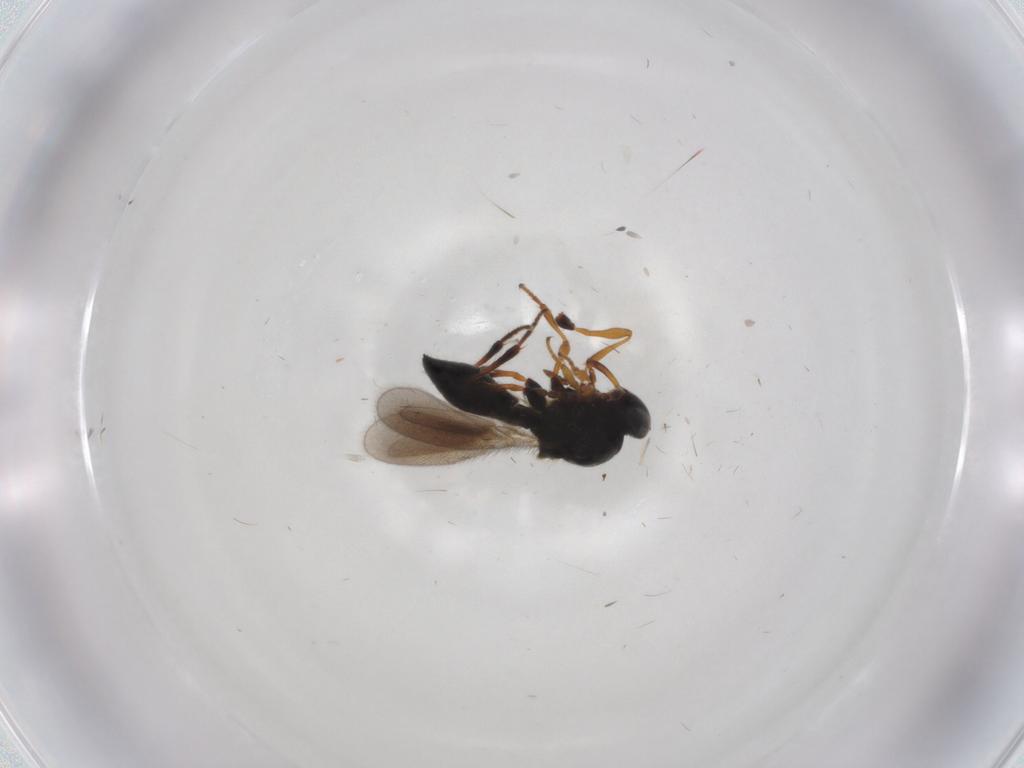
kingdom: Animalia
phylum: Arthropoda
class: Insecta
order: Hymenoptera
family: Platygastridae
